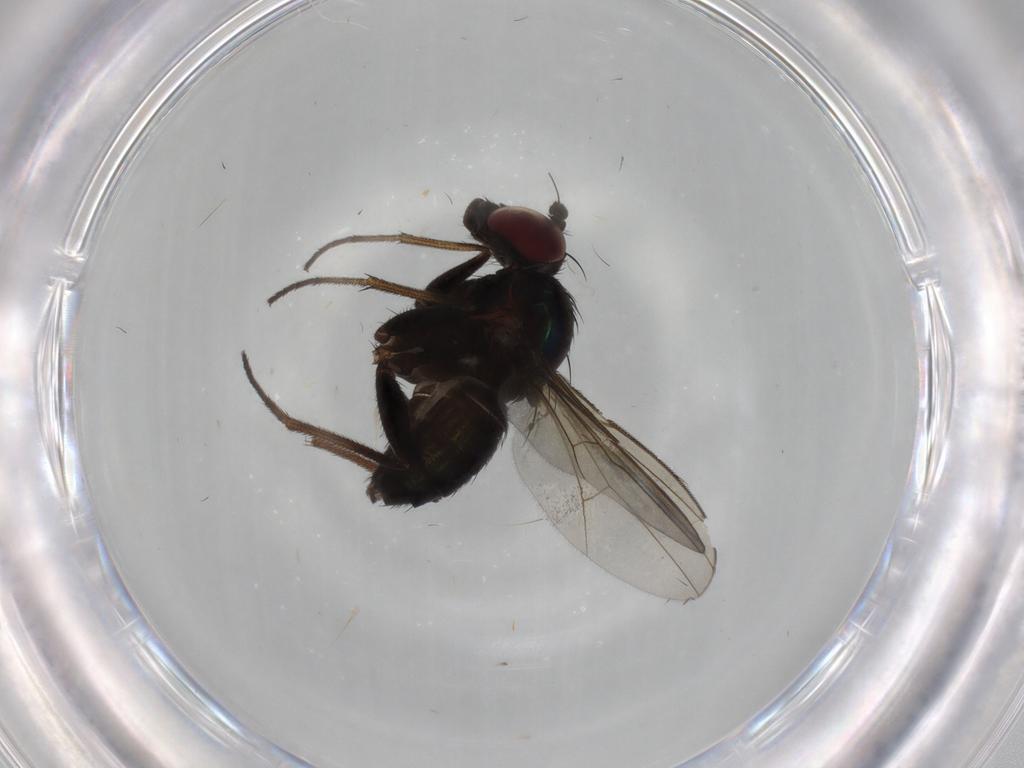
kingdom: Animalia
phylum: Arthropoda
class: Insecta
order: Diptera
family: Dolichopodidae
